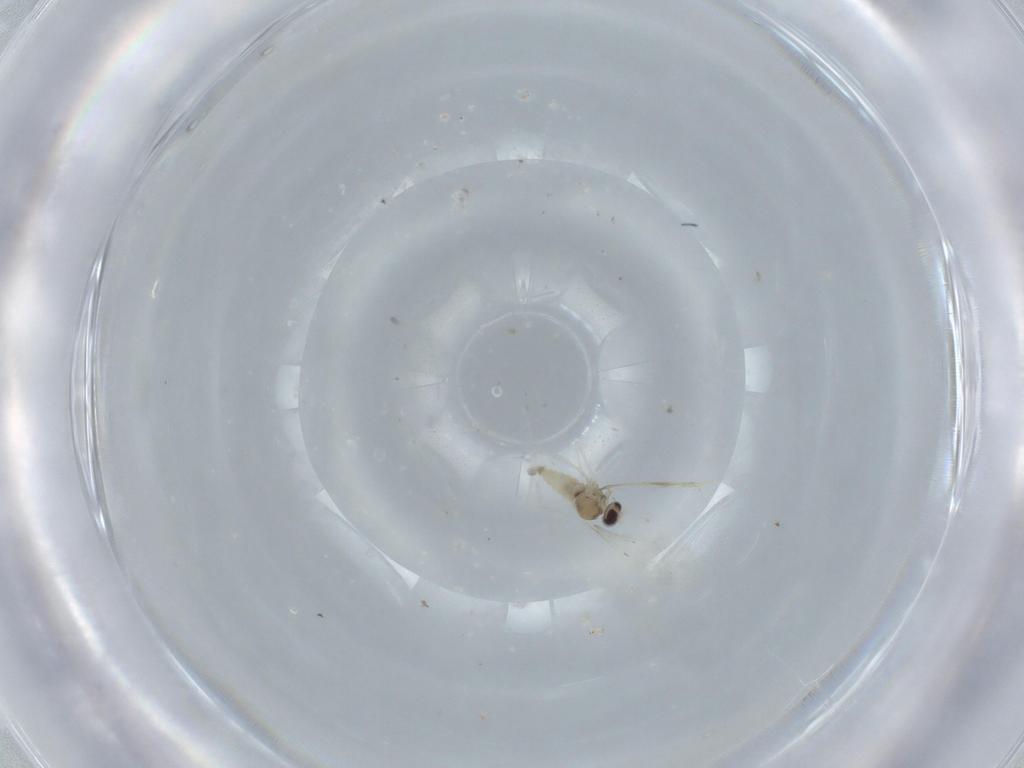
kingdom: Animalia
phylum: Arthropoda
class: Insecta
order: Diptera
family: Cecidomyiidae
